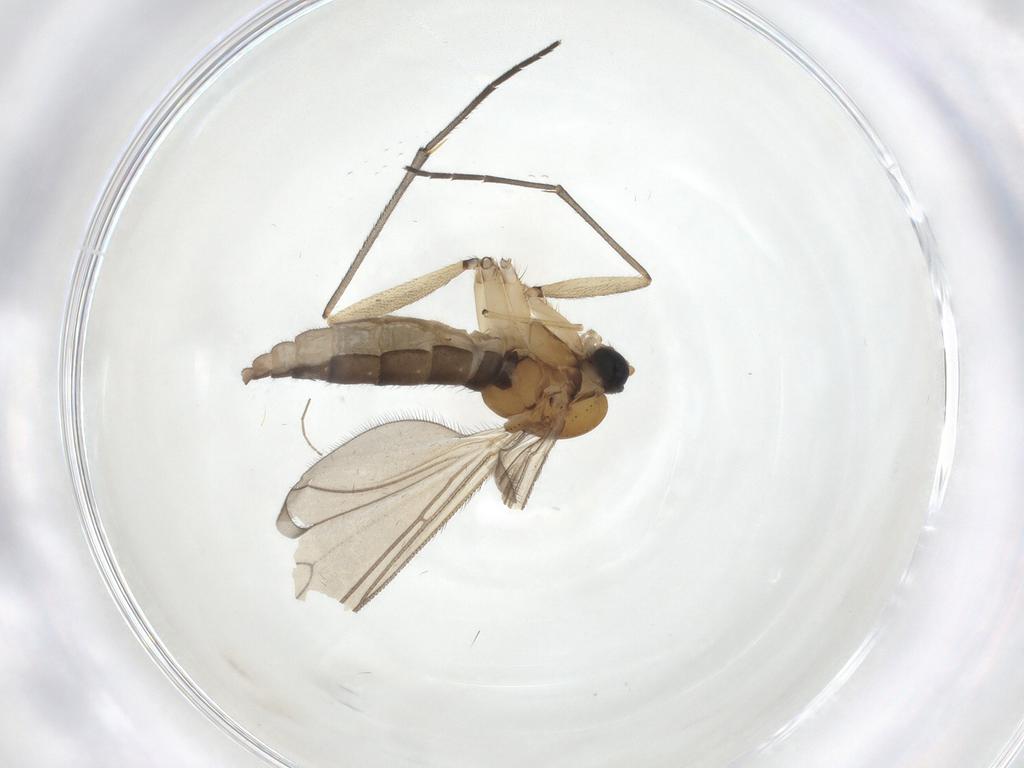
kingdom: Animalia
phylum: Arthropoda
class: Insecta
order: Diptera
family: Sciaridae
